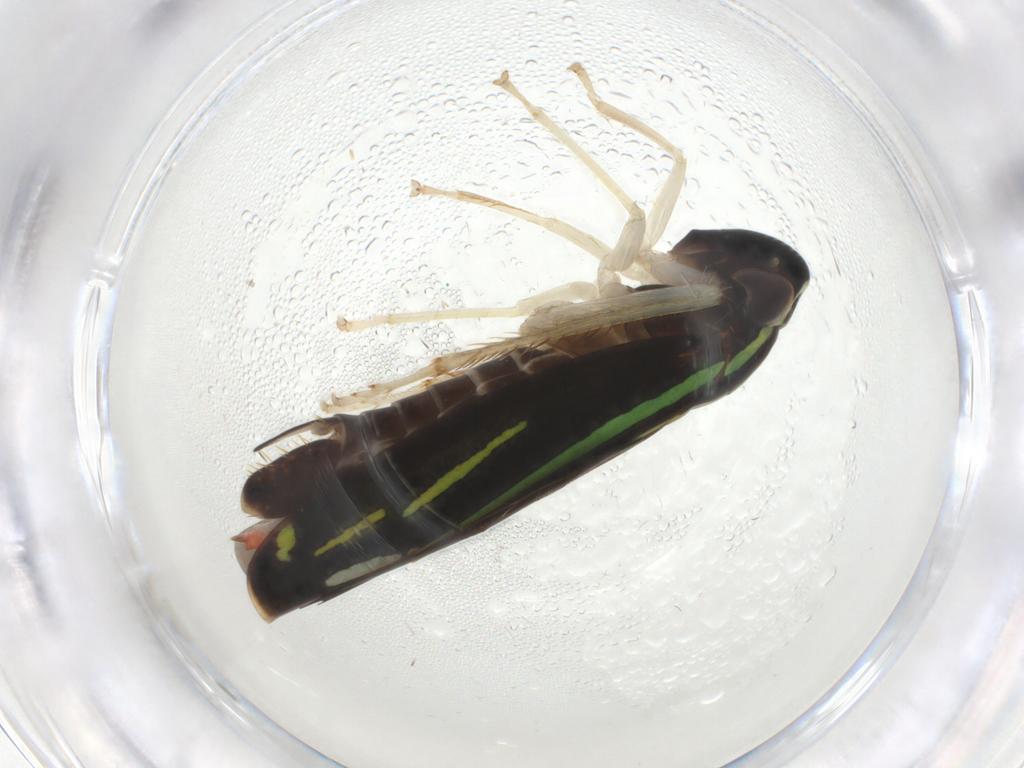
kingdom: Animalia
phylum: Arthropoda
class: Insecta
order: Hemiptera
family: Cicadellidae
